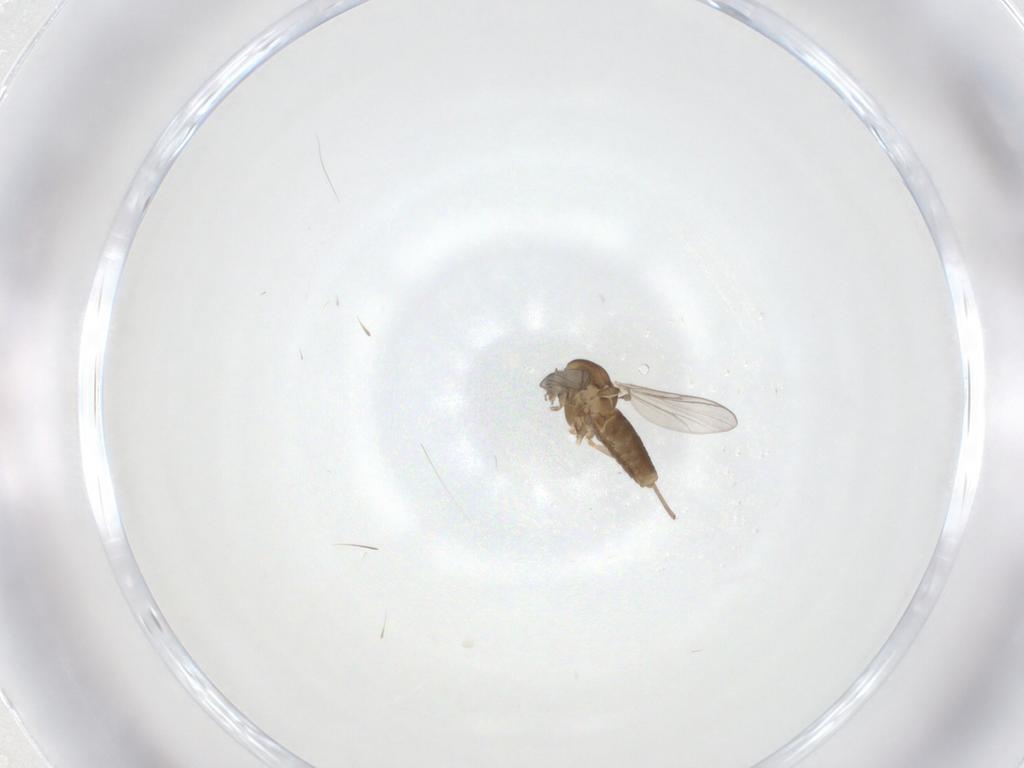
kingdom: Animalia
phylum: Arthropoda
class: Insecta
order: Diptera
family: Chironomidae
